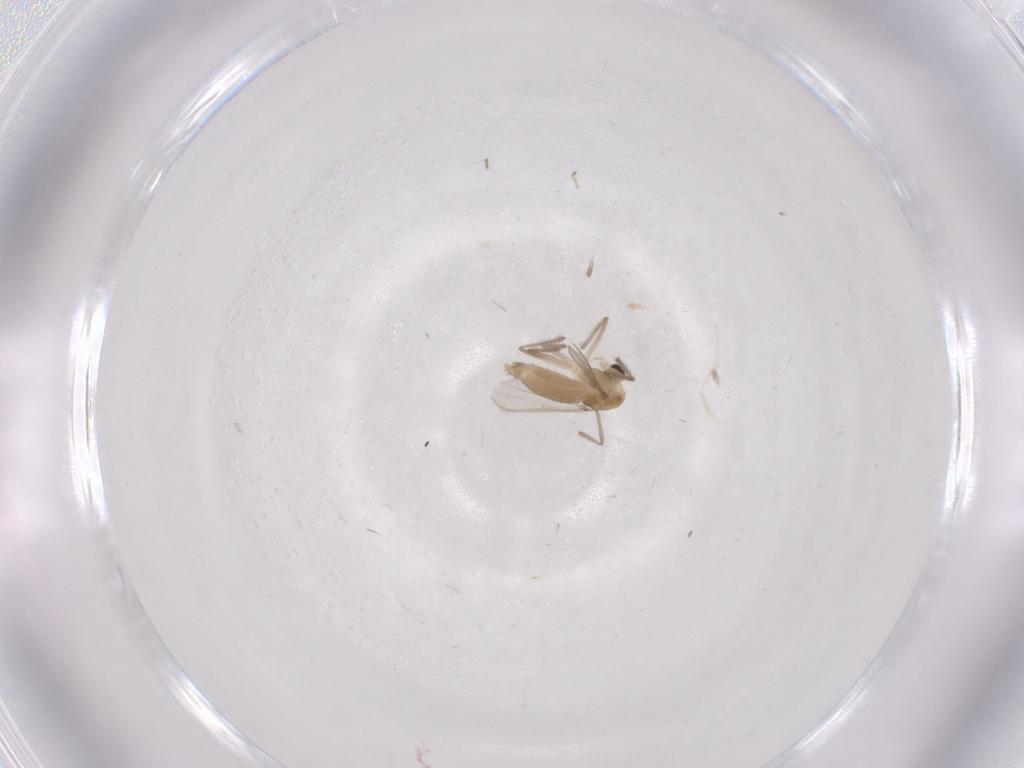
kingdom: Animalia
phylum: Arthropoda
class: Insecta
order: Diptera
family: Chironomidae
